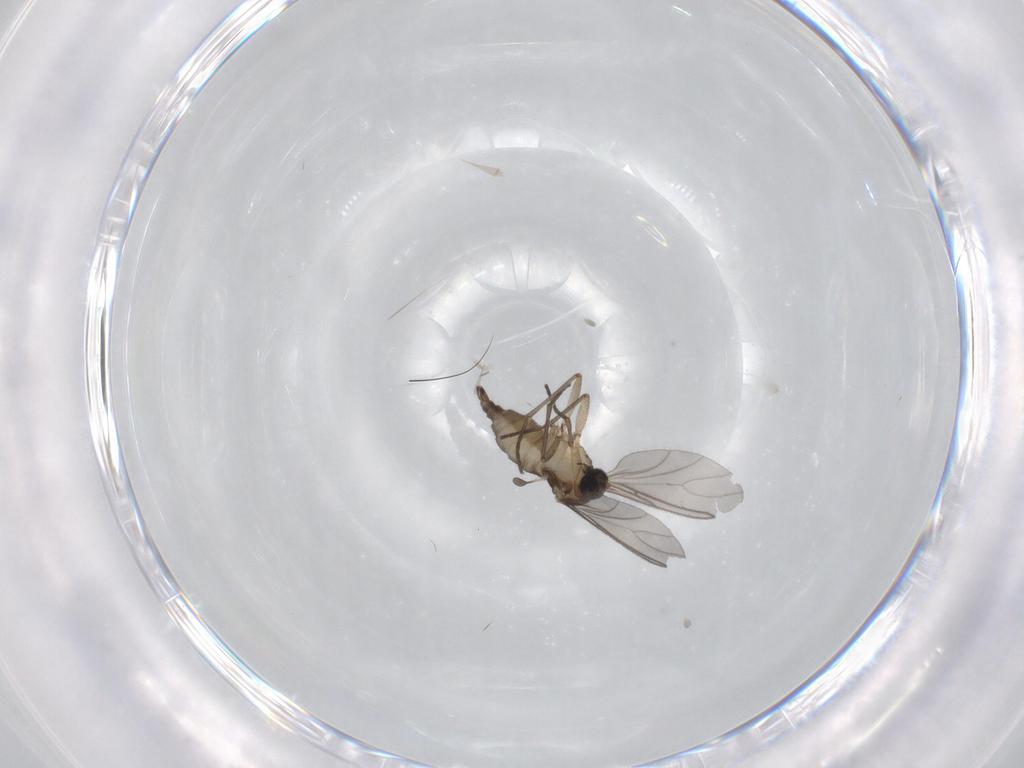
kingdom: Animalia
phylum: Arthropoda
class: Insecta
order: Diptera
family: Sciaridae
